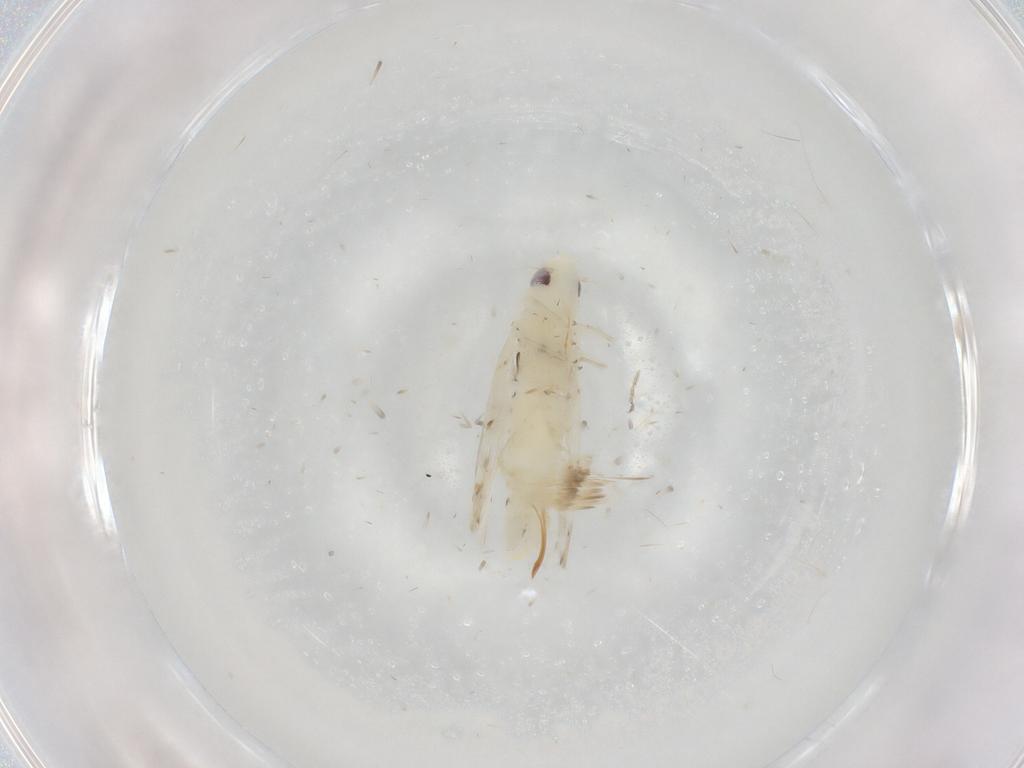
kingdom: Animalia
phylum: Arthropoda
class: Insecta
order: Hemiptera
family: Cicadellidae
